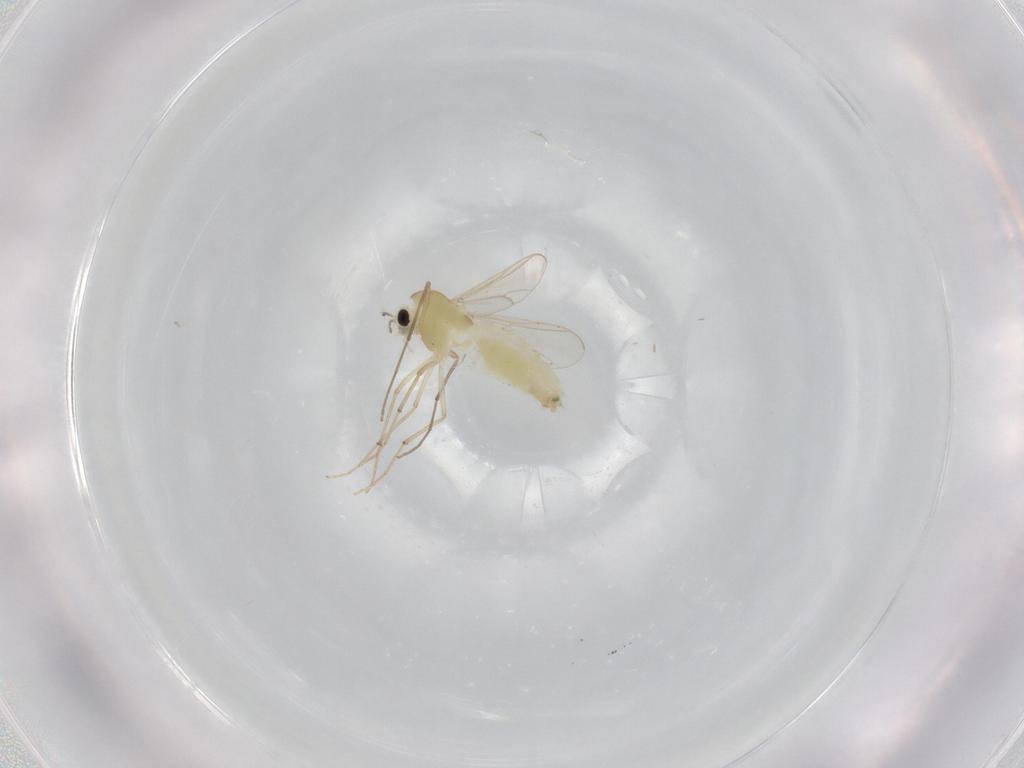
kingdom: Animalia
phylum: Arthropoda
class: Insecta
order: Diptera
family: Chironomidae
